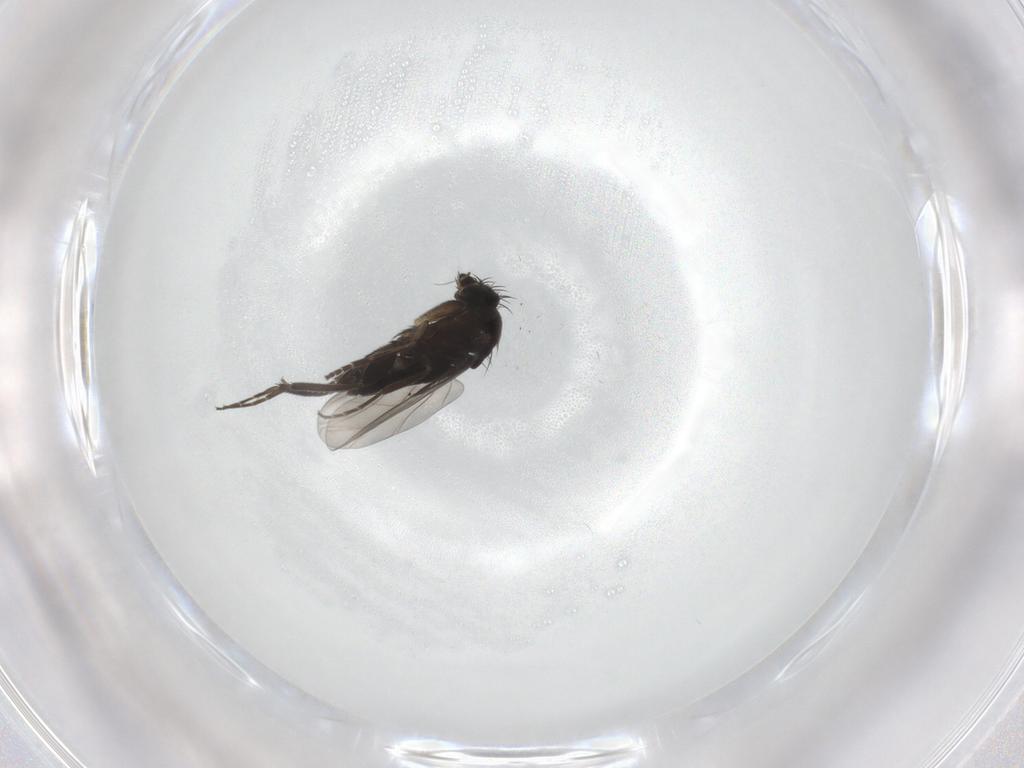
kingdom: Animalia
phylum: Arthropoda
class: Insecta
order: Diptera
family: Phoridae
